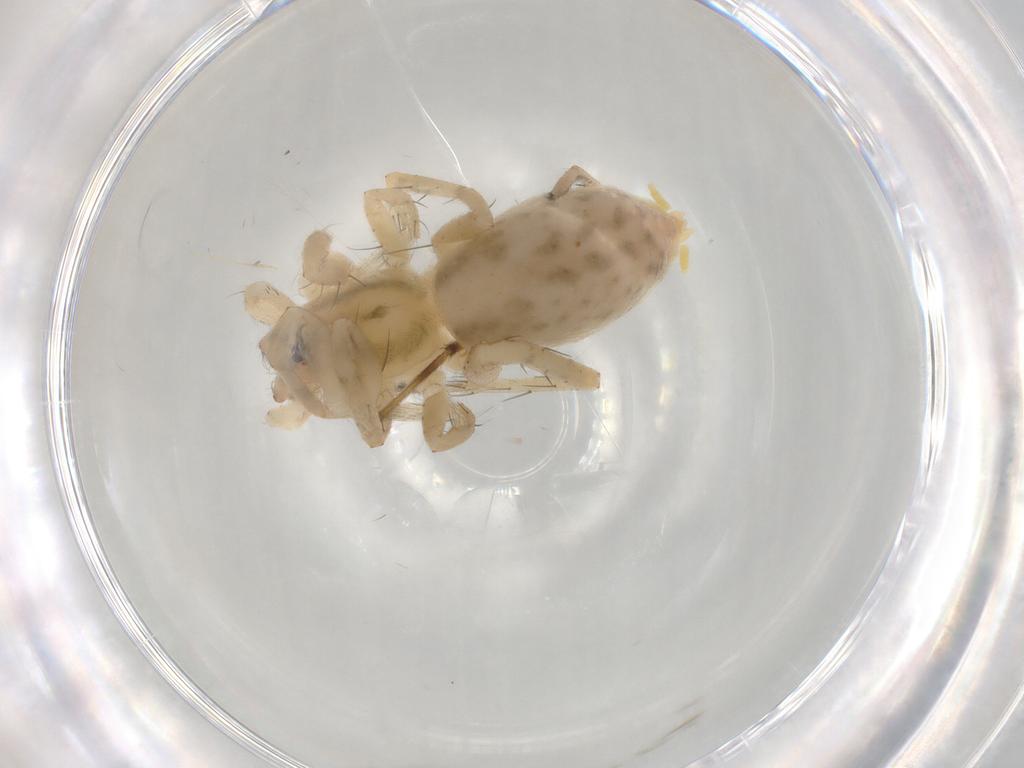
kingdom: Animalia
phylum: Arthropoda
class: Arachnida
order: Araneae
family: Anyphaenidae
